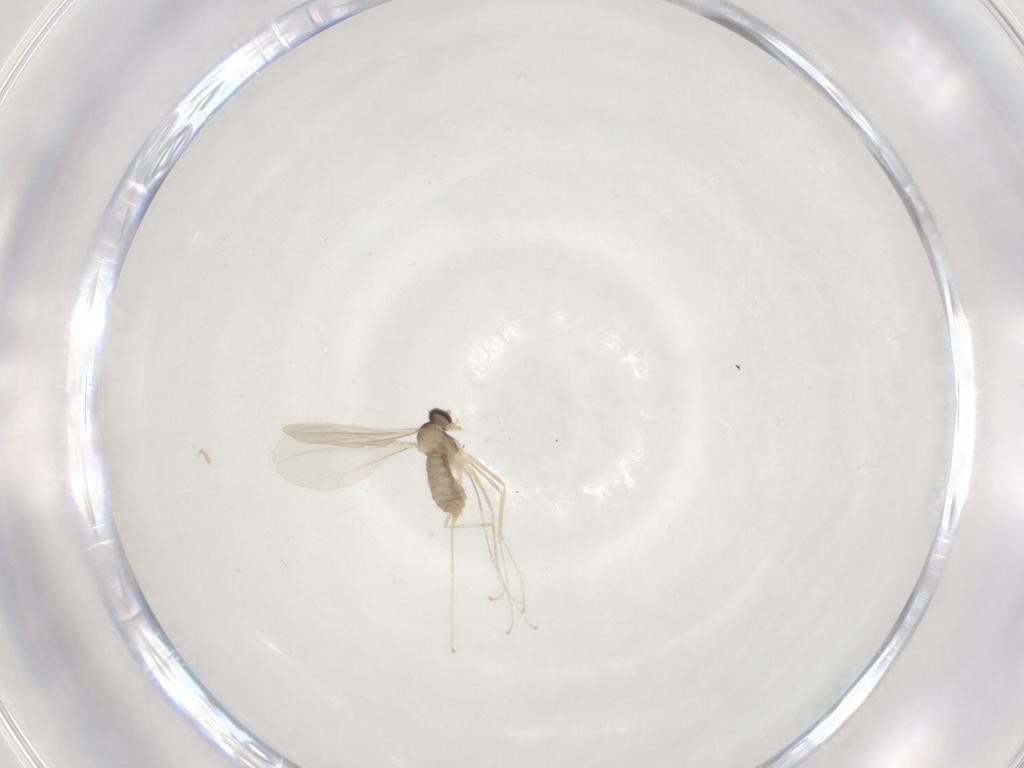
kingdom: Animalia
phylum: Arthropoda
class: Insecta
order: Diptera
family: Cecidomyiidae
